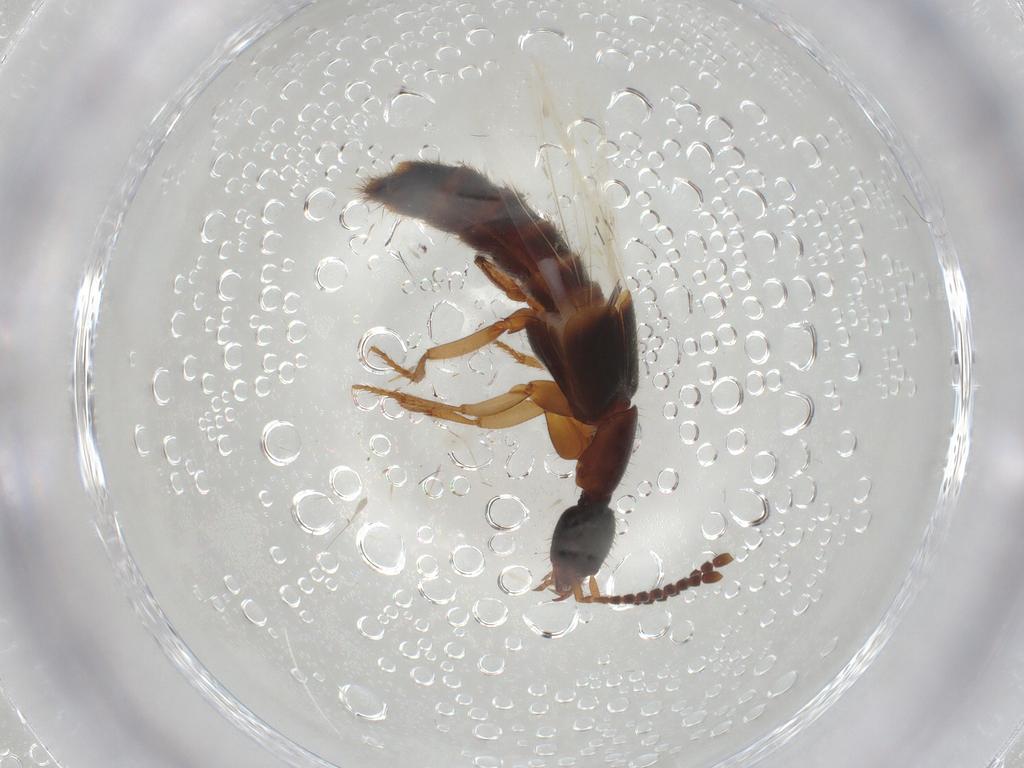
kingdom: Animalia
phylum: Arthropoda
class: Insecta
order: Coleoptera
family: Staphylinidae
